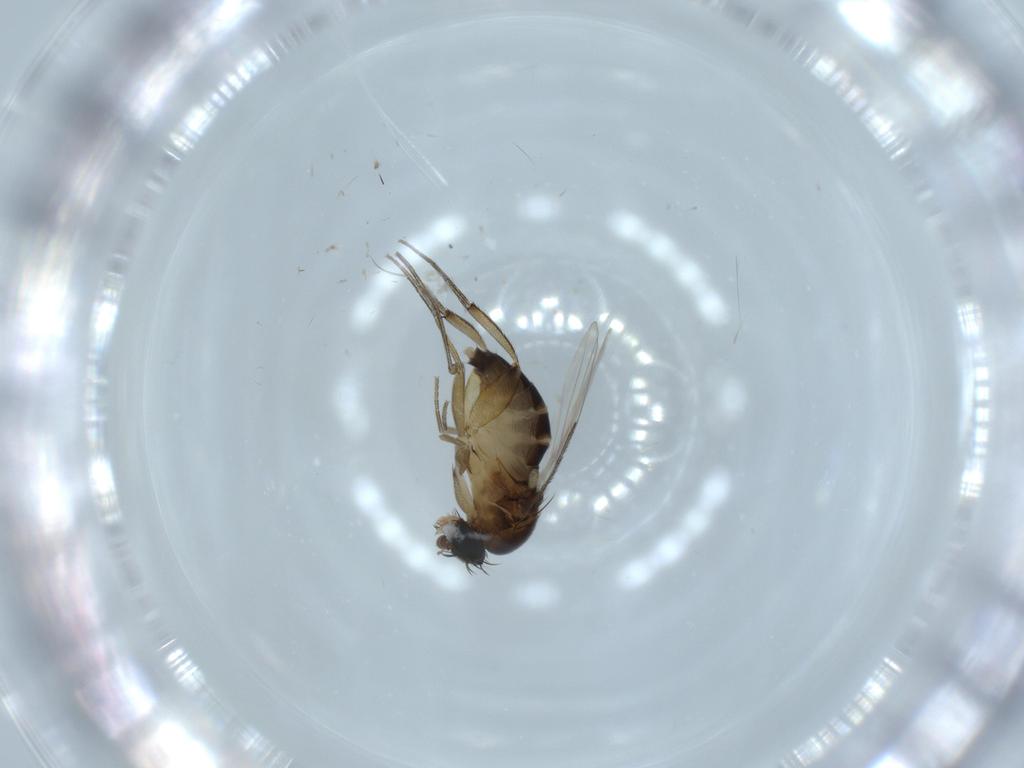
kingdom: Animalia
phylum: Arthropoda
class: Insecta
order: Diptera
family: Phoridae
